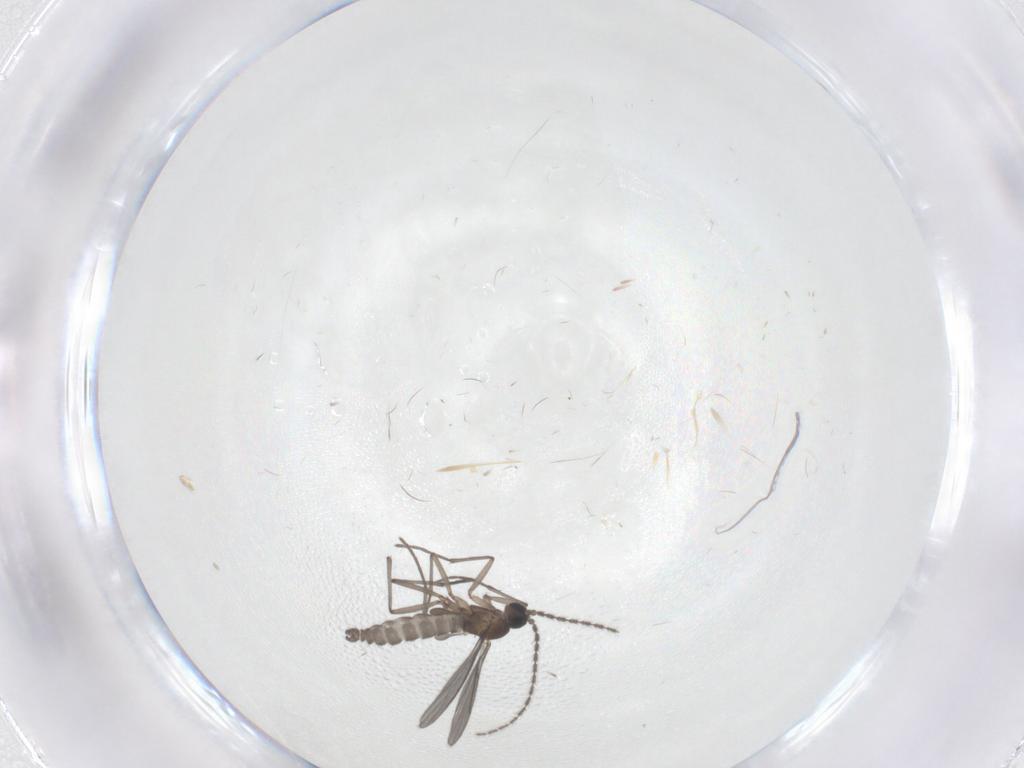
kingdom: Animalia
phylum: Arthropoda
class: Insecta
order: Diptera
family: Sciaridae
